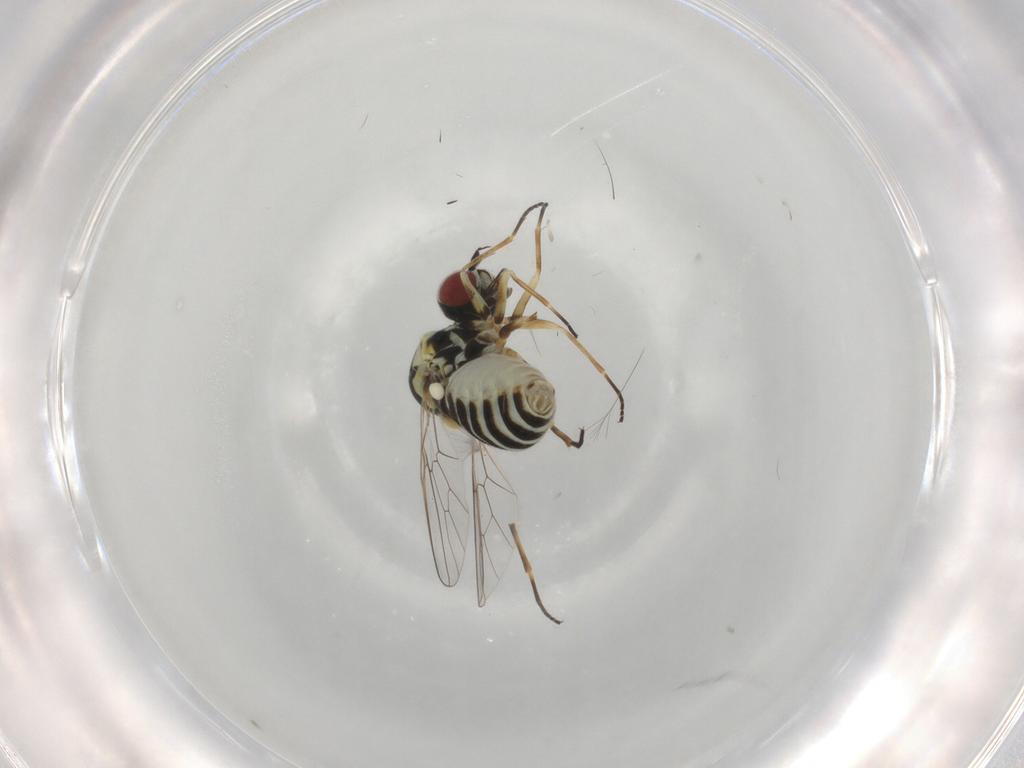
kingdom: Animalia
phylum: Arthropoda
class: Insecta
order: Diptera
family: Bombyliidae
